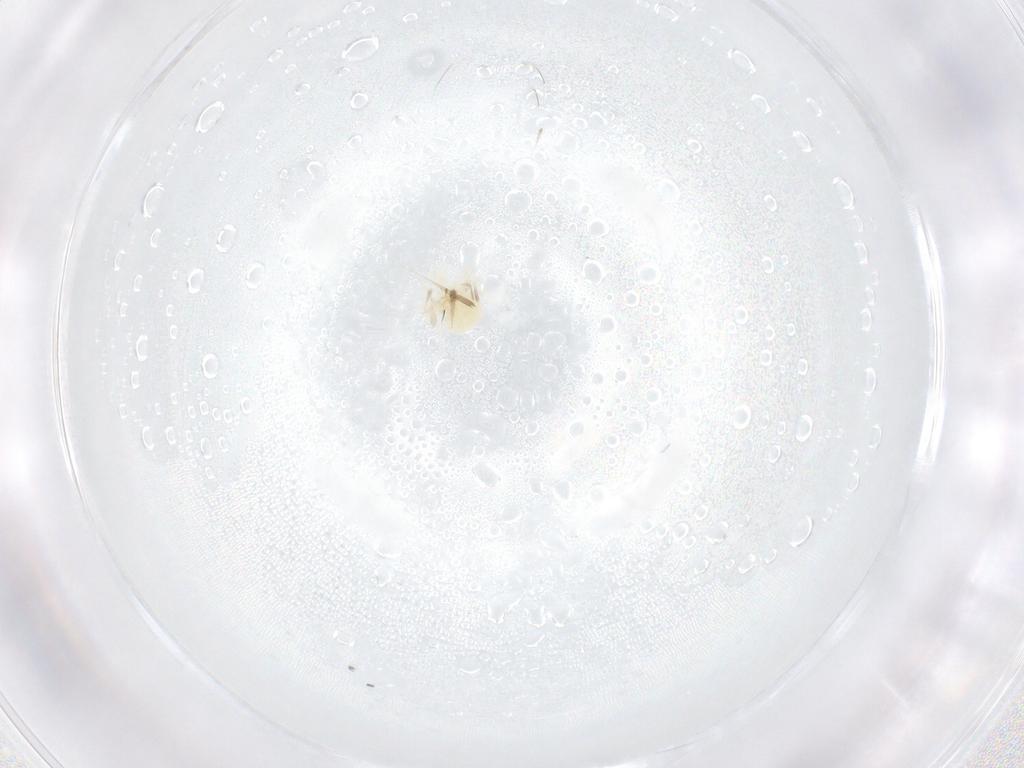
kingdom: Animalia
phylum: Arthropoda
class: Arachnida
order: Trombidiformes
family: Anystidae
